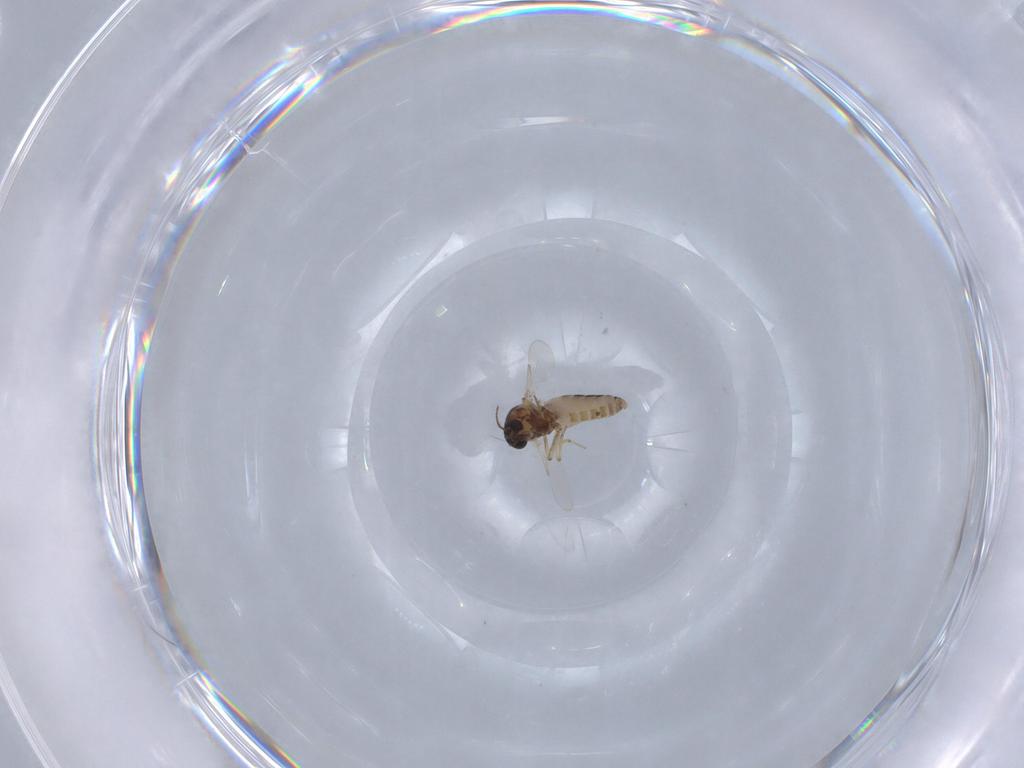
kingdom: Animalia
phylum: Arthropoda
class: Insecta
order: Diptera
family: Ceratopogonidae
